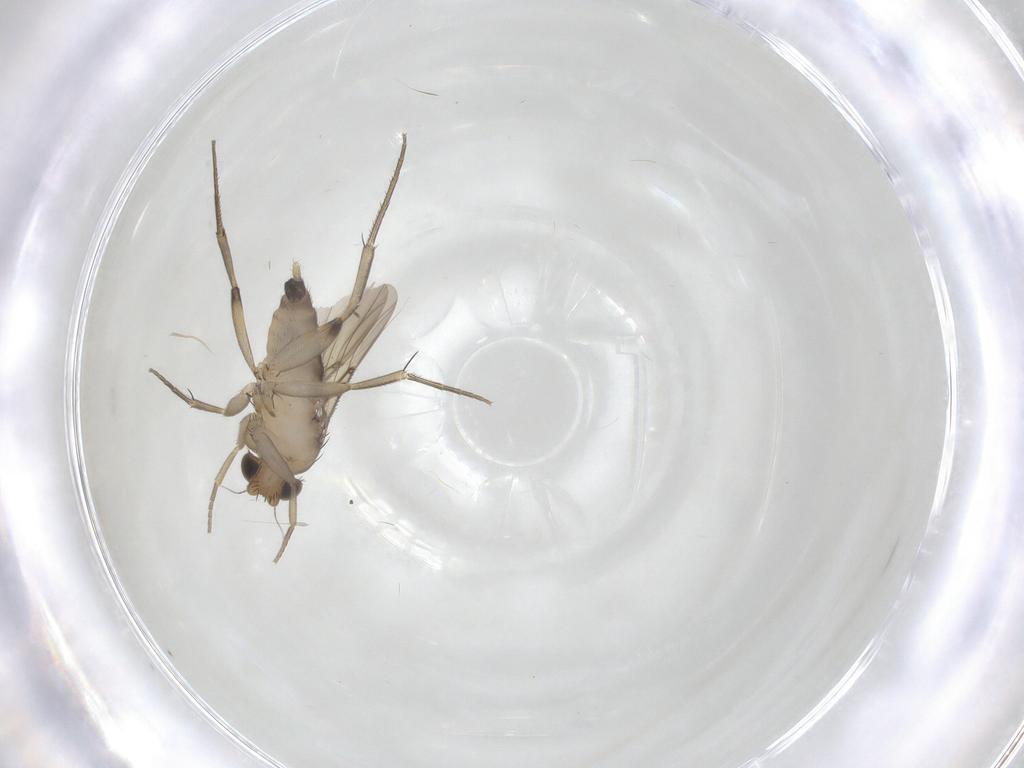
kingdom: Animalia
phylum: Arthropoda
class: Insecta
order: Diptera
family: Phoridae
